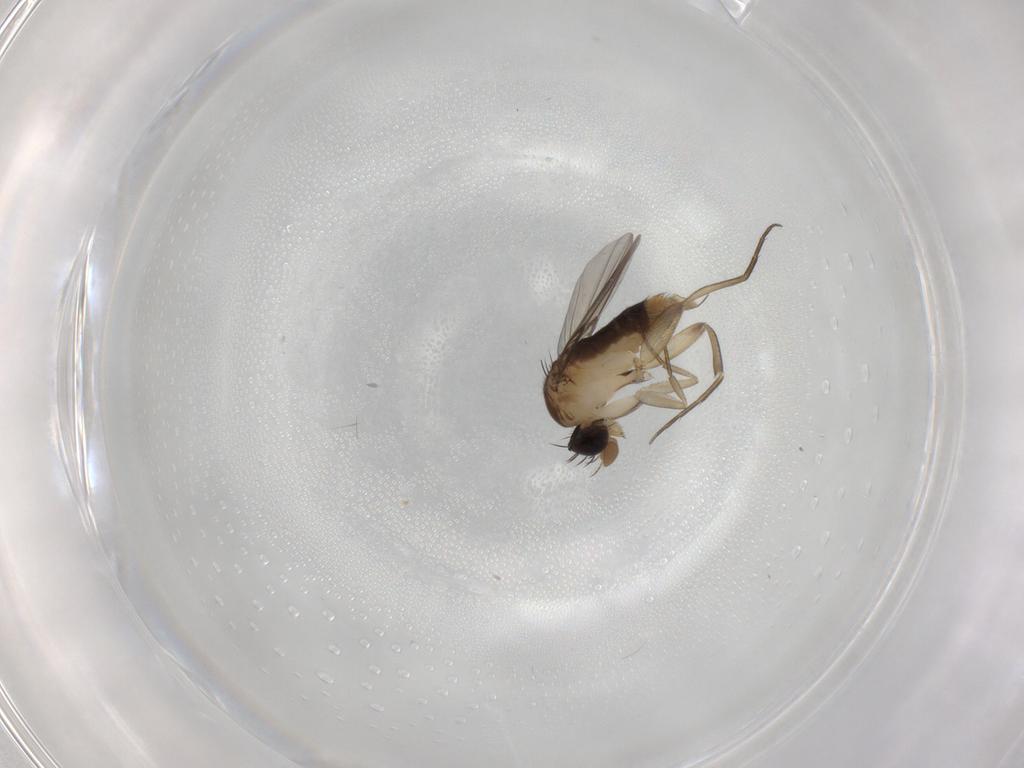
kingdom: Animalia
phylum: Arthropoda
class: Insecta
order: Diptera
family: Phoridae
